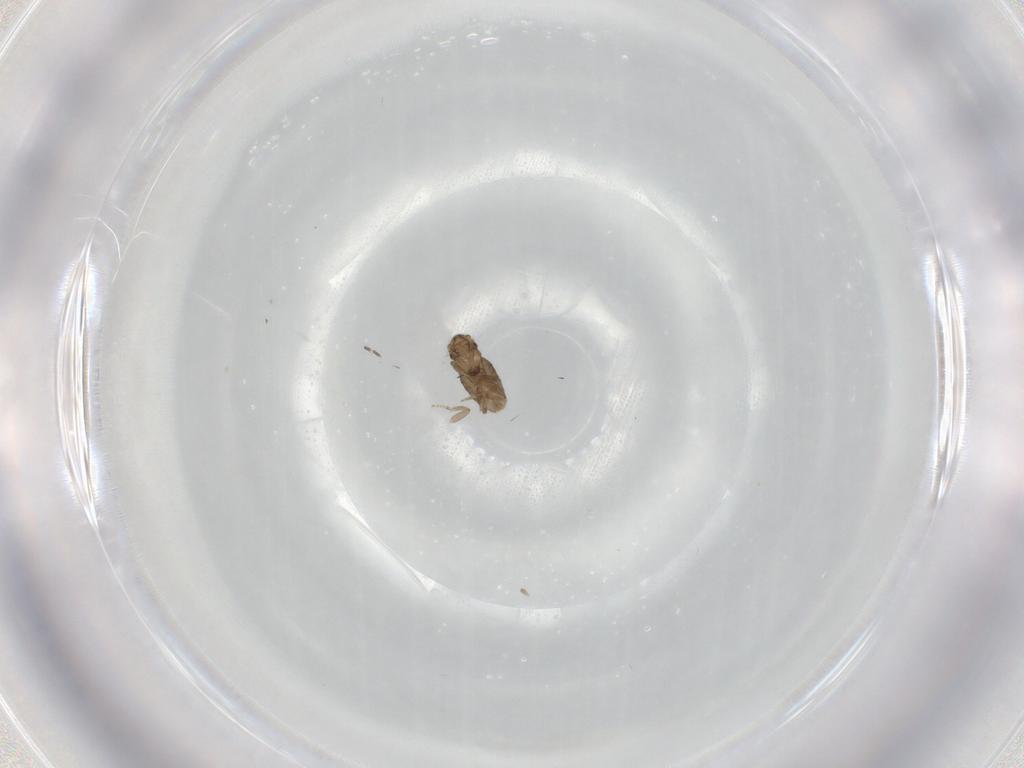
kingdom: Animalia
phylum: Arthropoda
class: Insecta
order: Diptera
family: Cecidomyiidae
